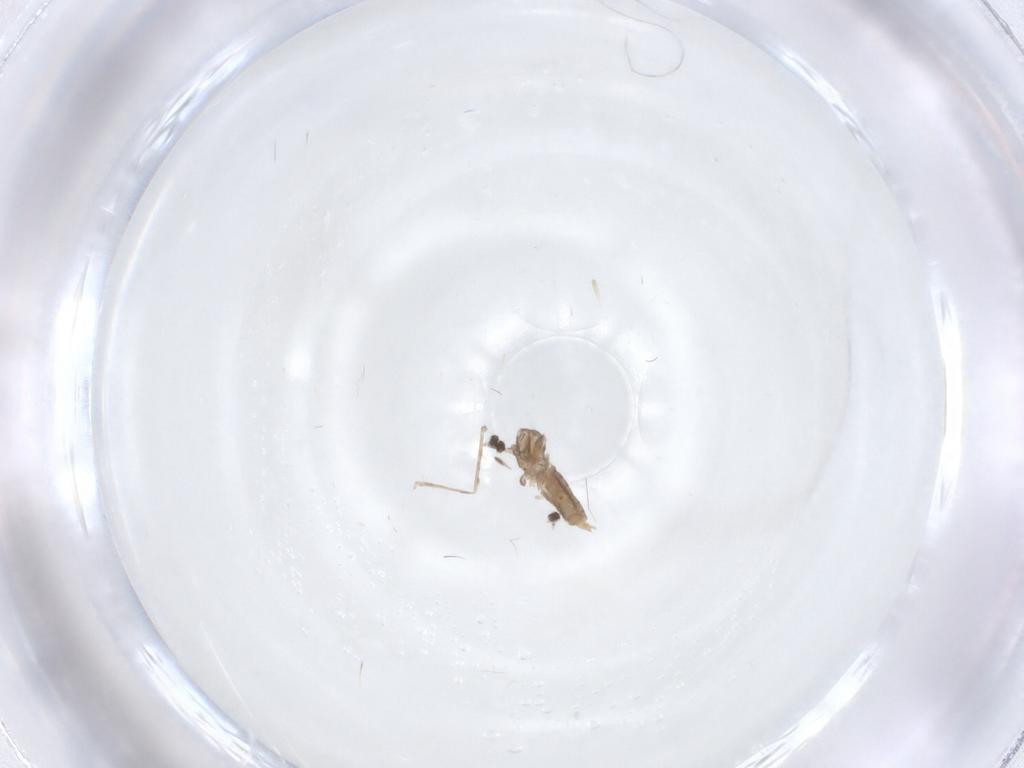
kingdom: Animalia
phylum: Arthropoda
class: Insecta
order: Diptera
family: Cecidomyiidae
